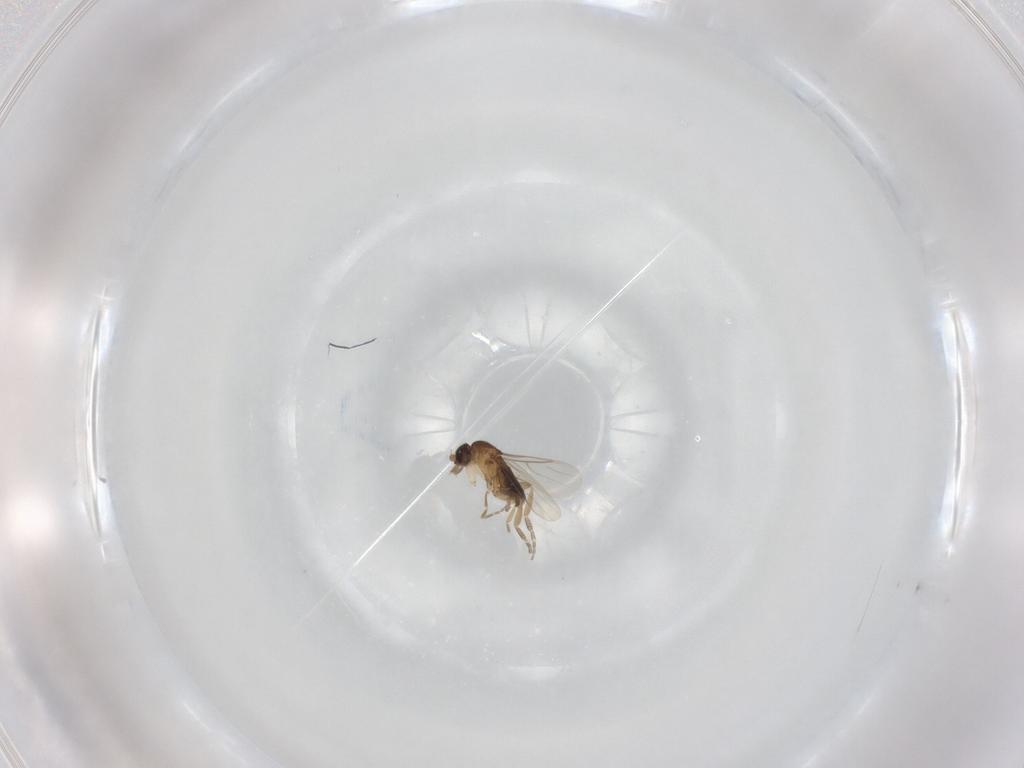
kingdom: Animalia
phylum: Arthropoda
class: Insecta
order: Diptera
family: Phoridae
